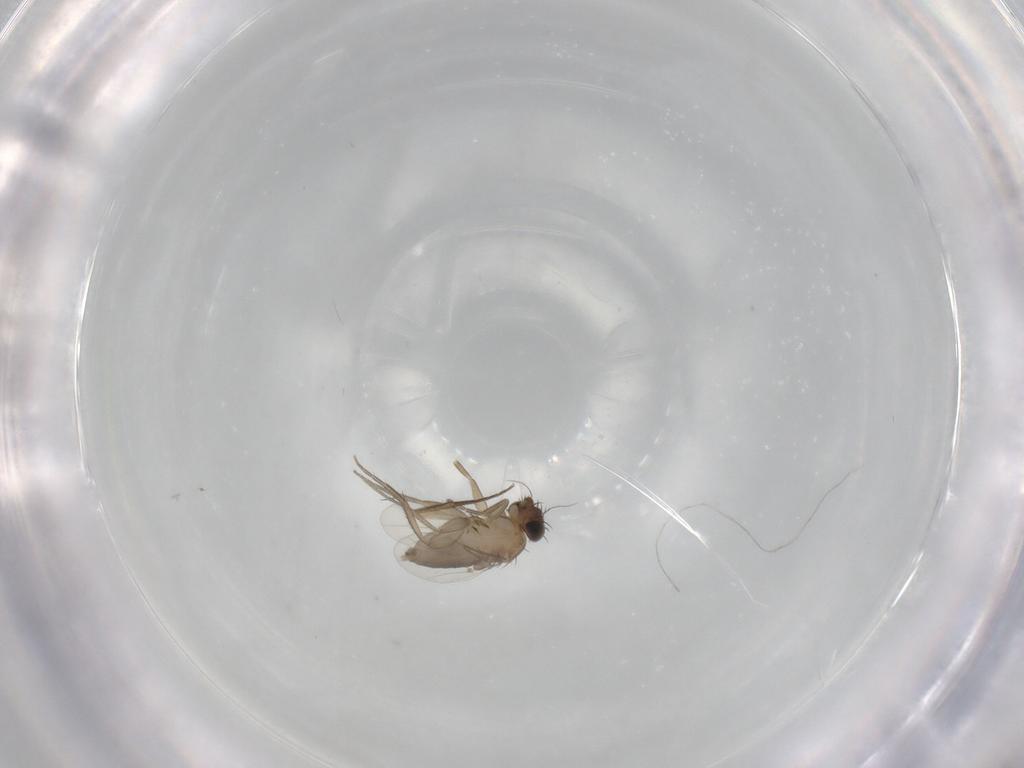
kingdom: Animalia
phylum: Arthropoda
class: Insecta
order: Diptera
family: Phoridae
